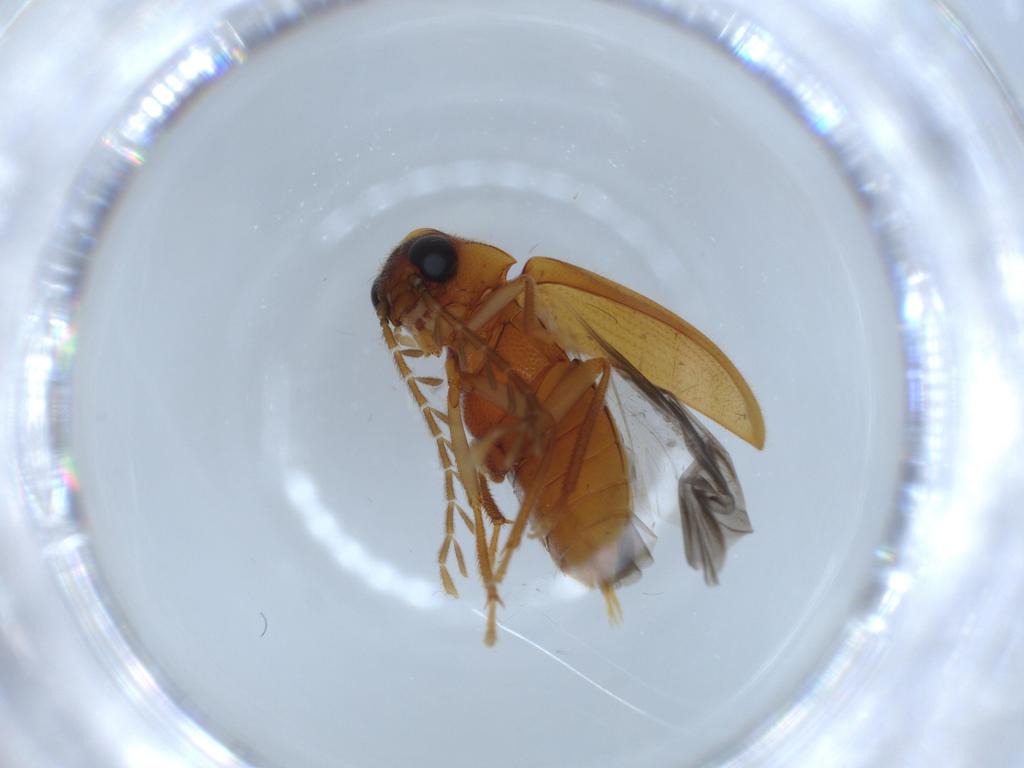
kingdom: Animalia
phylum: Arthropoda
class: Insecta
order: Coleoptera
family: Ptilodactylidae
